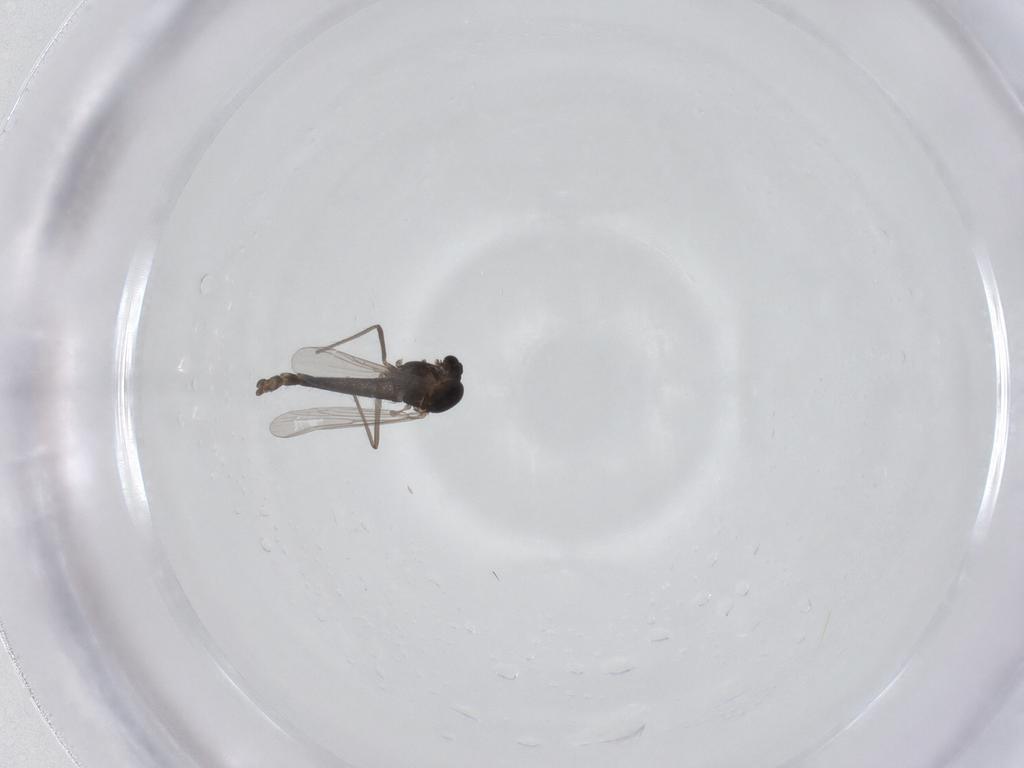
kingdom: Animalia
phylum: Arthropoda
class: Insecta
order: Diptera
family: Chironomidae
